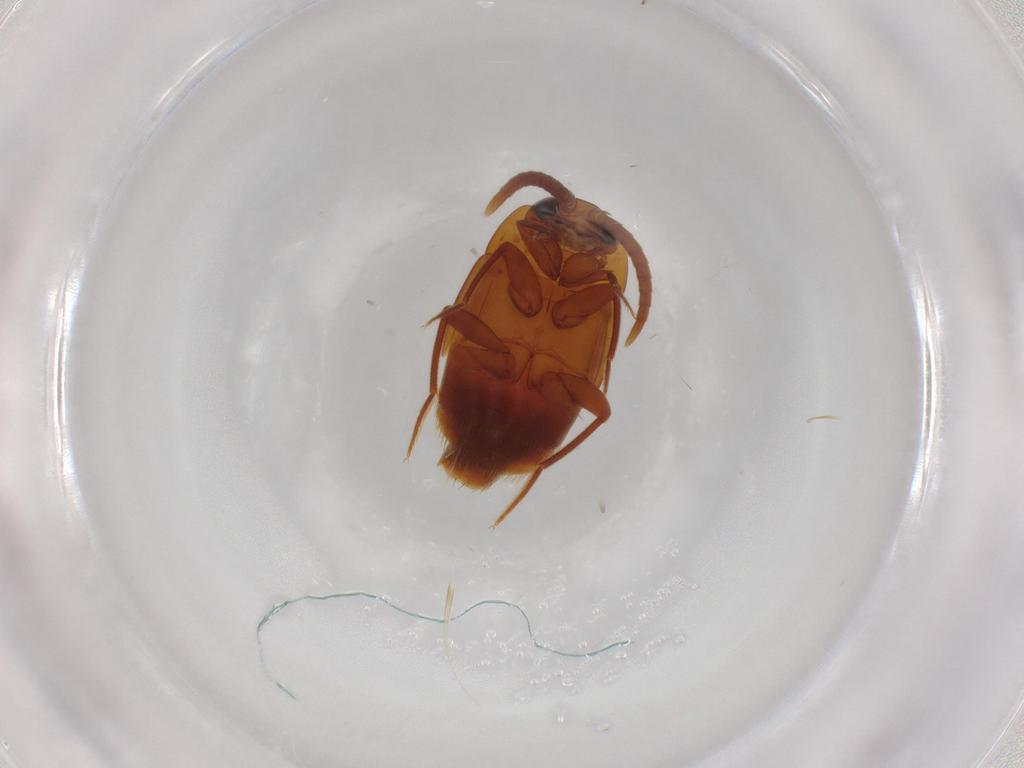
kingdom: Animalia
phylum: Arthropoda
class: Insecta
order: Coleoptera
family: Staphylinidae
